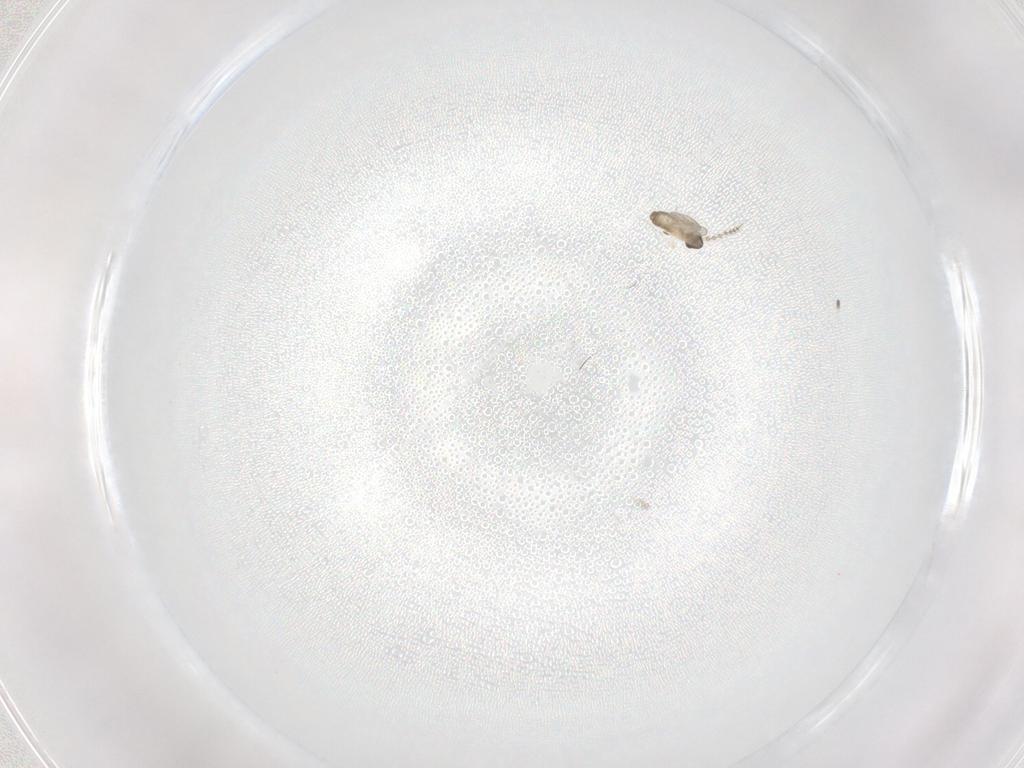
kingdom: Animalia
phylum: Arthropoda
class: Insecta
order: Diptera
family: Cecidomyiidae
